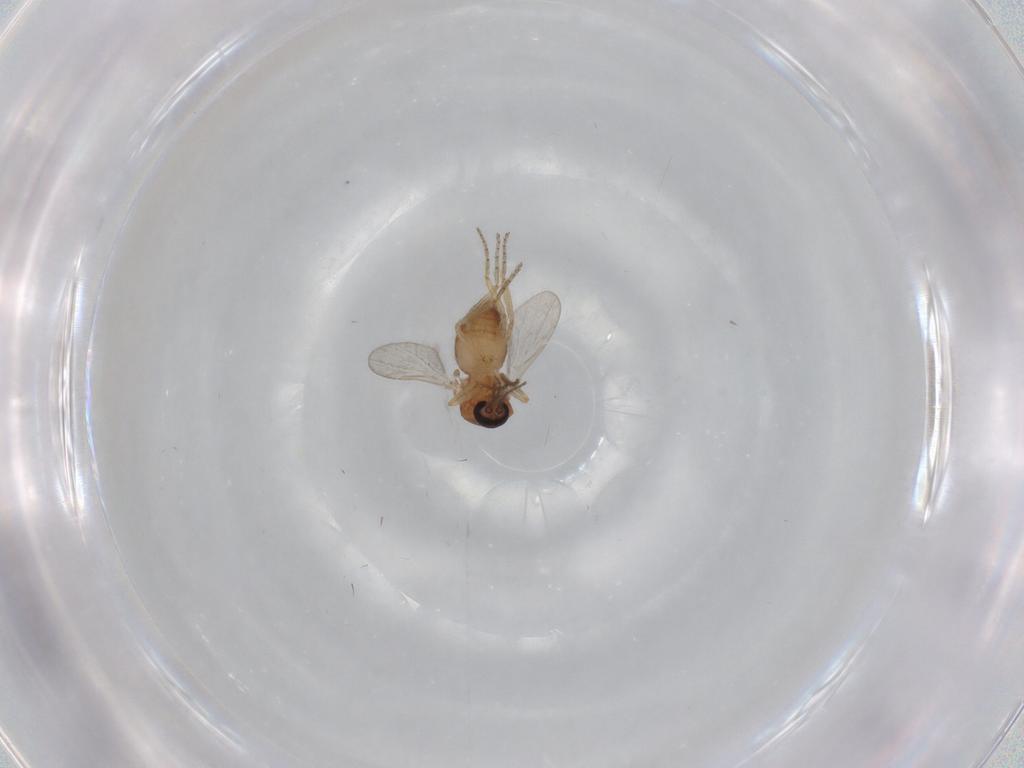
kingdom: Animalia
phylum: Arthropoda
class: Insecta
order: Diptera
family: Ceratopogonidae
